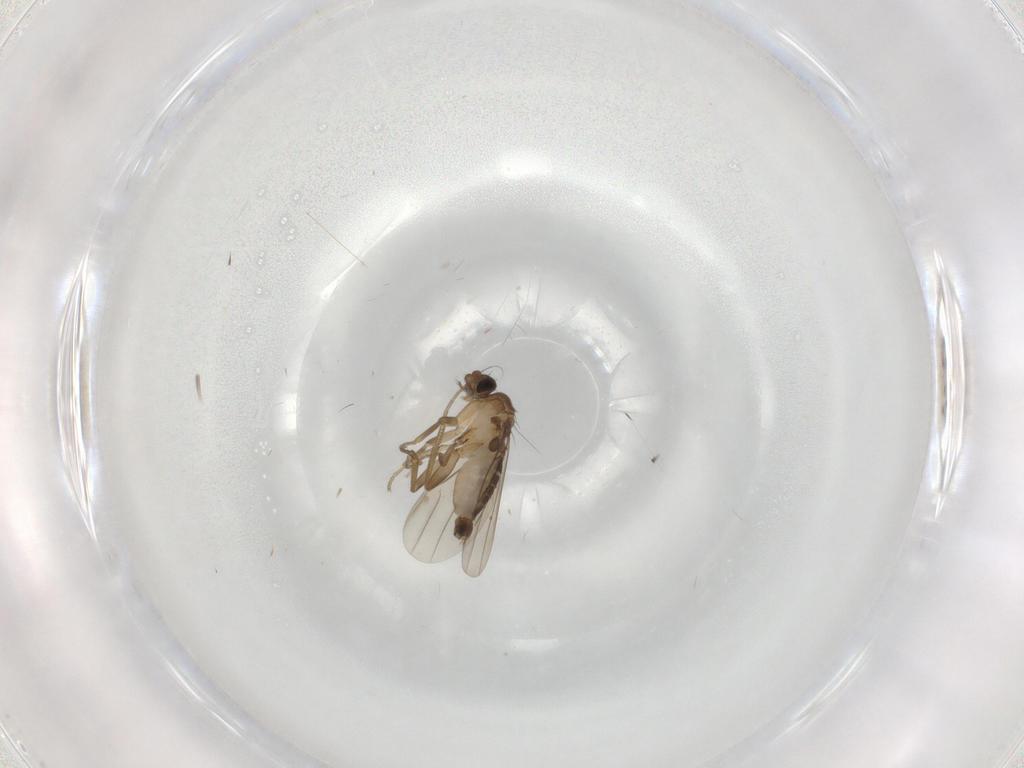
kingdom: Animalia
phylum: Arthropoda
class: Insecta
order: Diptera
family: Phoridae
